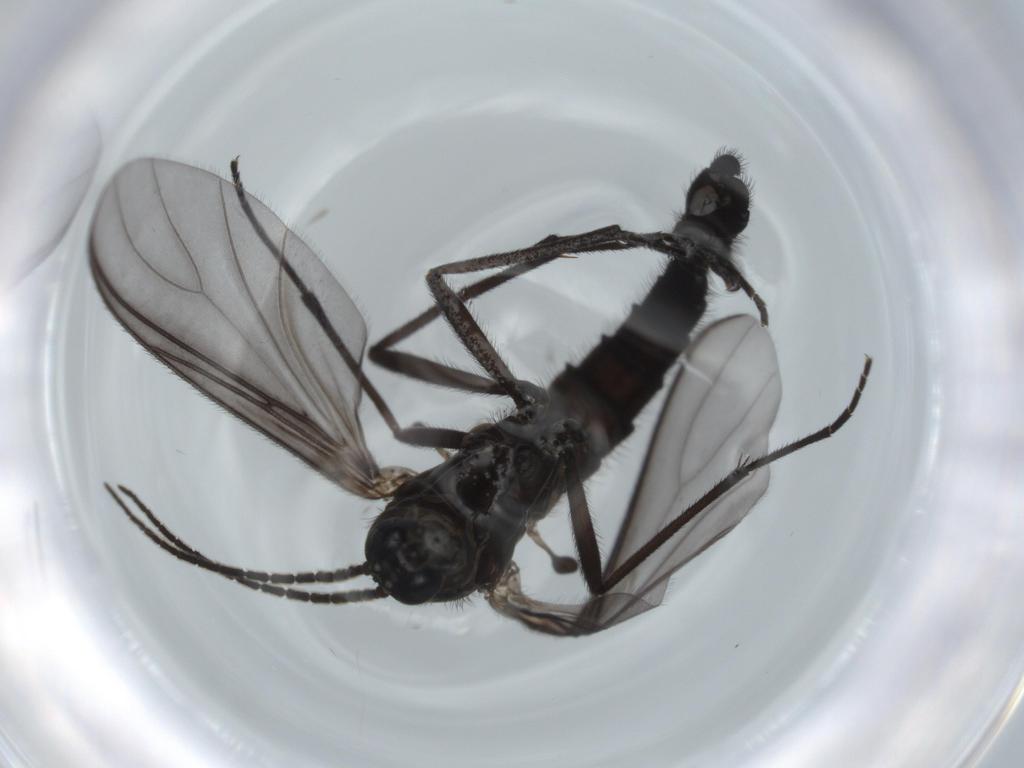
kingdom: Animalia
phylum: Arthropoda
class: Insecta
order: Diptera
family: Sciaridae
